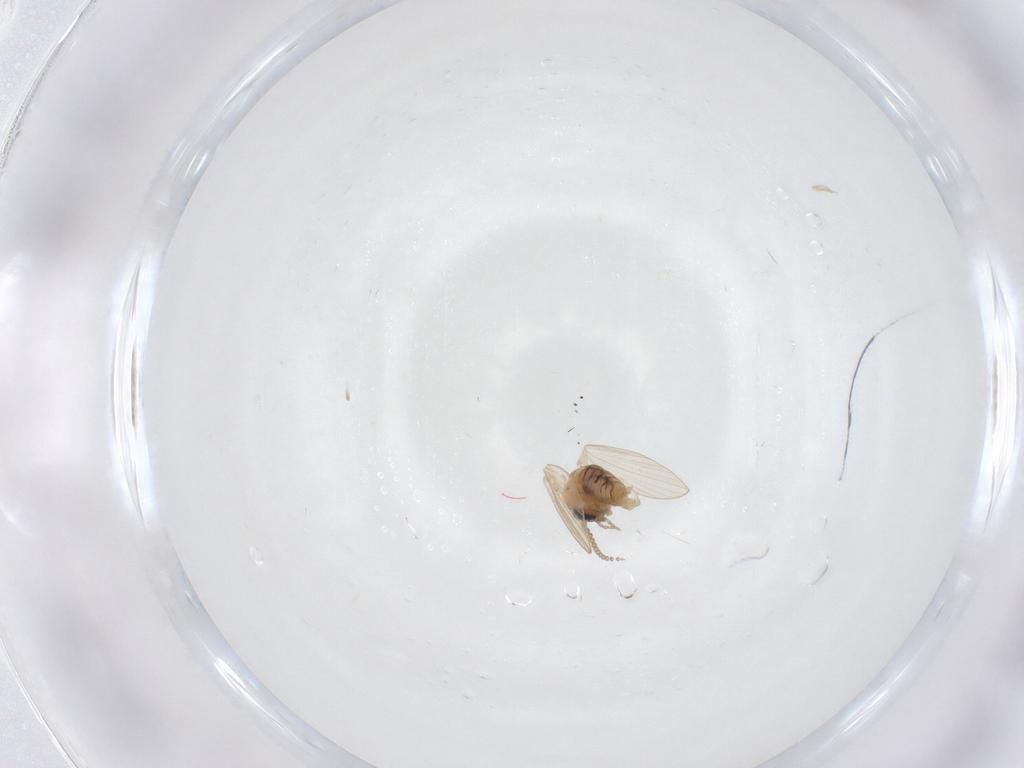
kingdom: Animalia
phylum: Arthropoda
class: Insecta
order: Diptera
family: Conopidae
